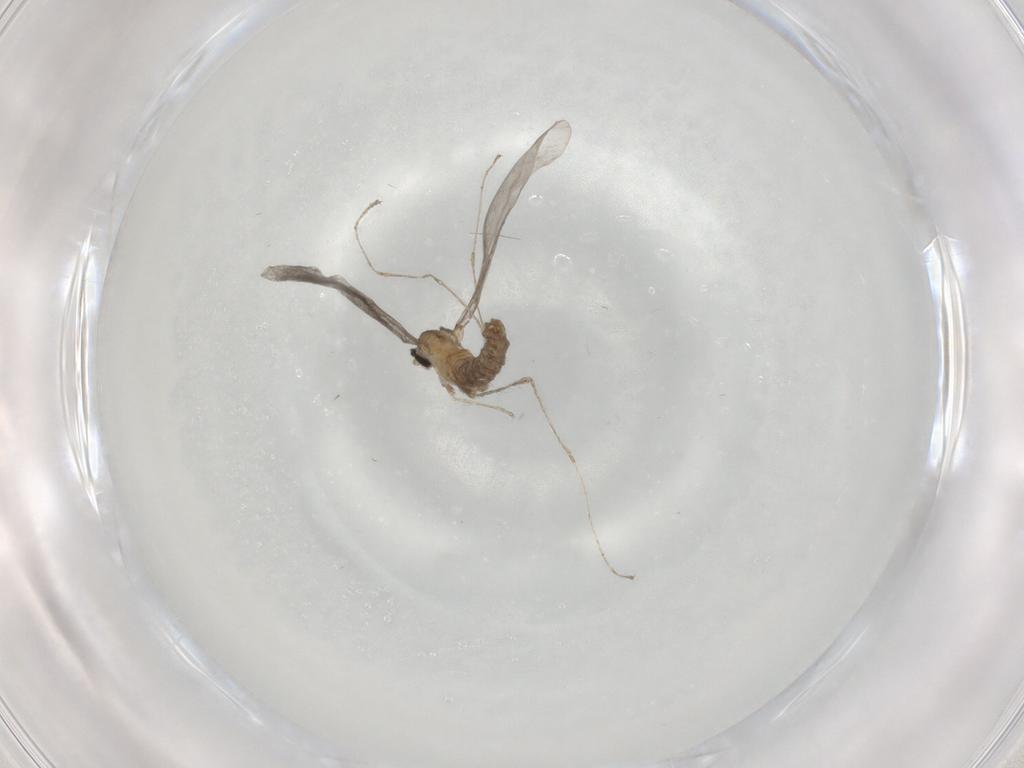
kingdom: Animalia
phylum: Arthropoda
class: Insecta
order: Diptera
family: Cecidomyiidae
